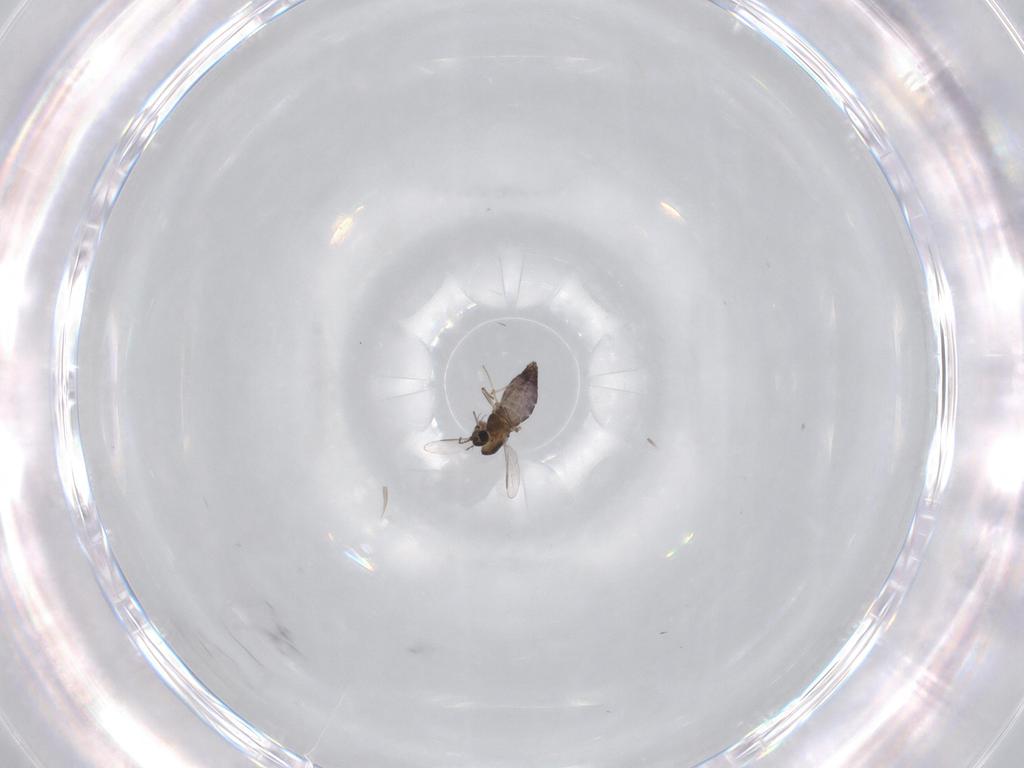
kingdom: Animalia
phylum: Arthropoda
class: Insecta
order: Diptera
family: Chironomidae
